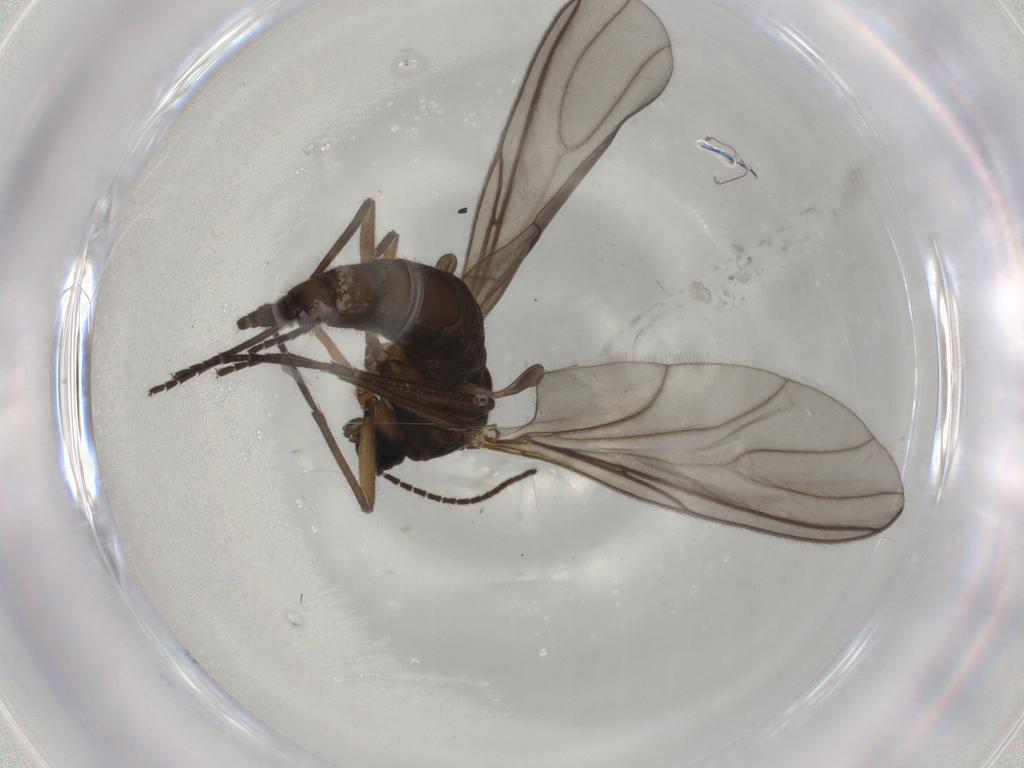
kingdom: Animalia
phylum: Arthropoda
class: Insecta
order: Diptera
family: Sciaridae
